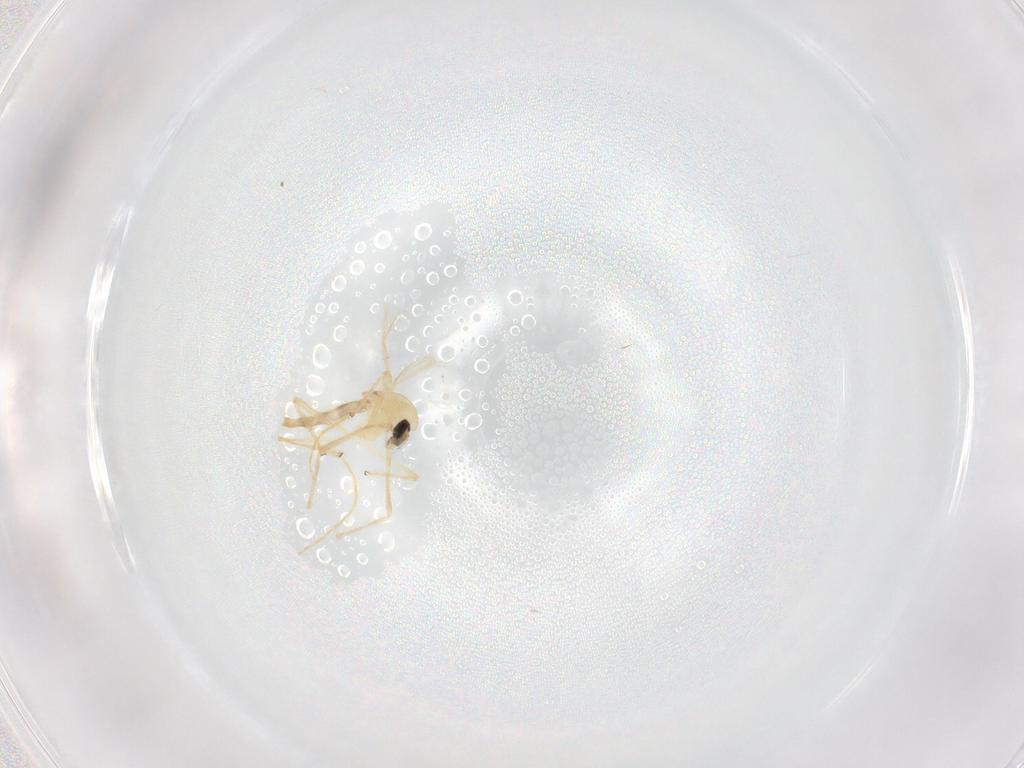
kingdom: Animalia
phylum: Arthropoda
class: Insecta
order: Diptera
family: Chironomidae
